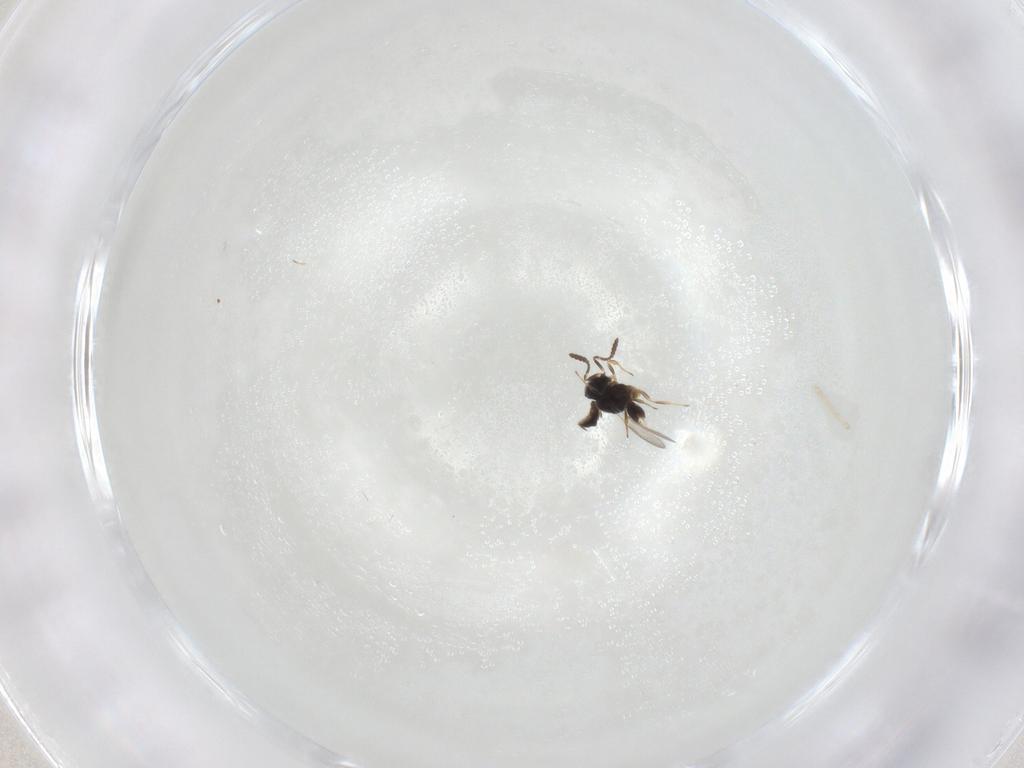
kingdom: Animalia
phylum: Arthropoda
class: Insecta
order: Hymenoptera
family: Scelionidae
